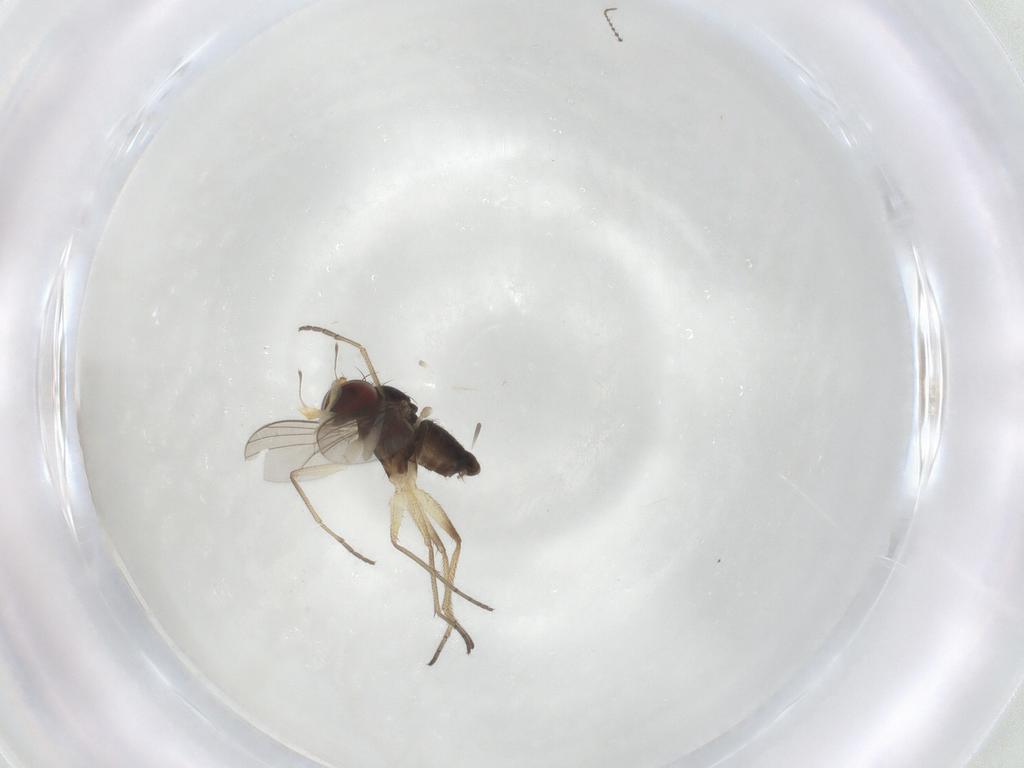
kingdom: Animalia
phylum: Arthropoda
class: Insecta
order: Diptera
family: Dolichopodidae
